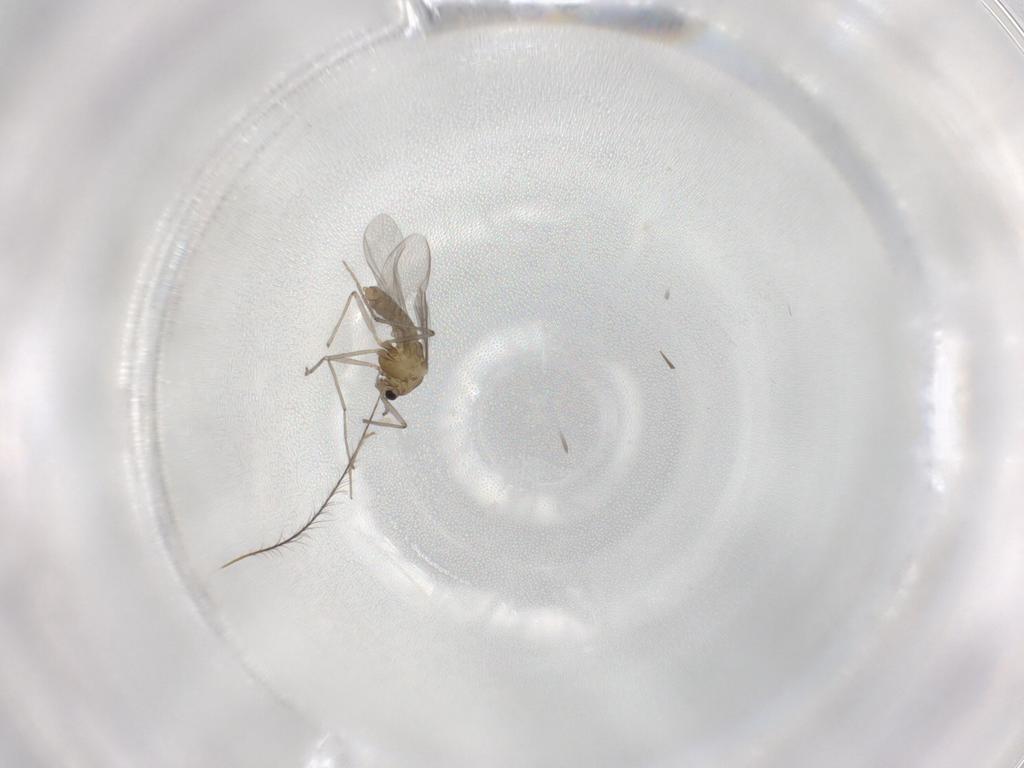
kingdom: Animalia
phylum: Arthropoda
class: Insecta
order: Diptera
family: Chironomidae
